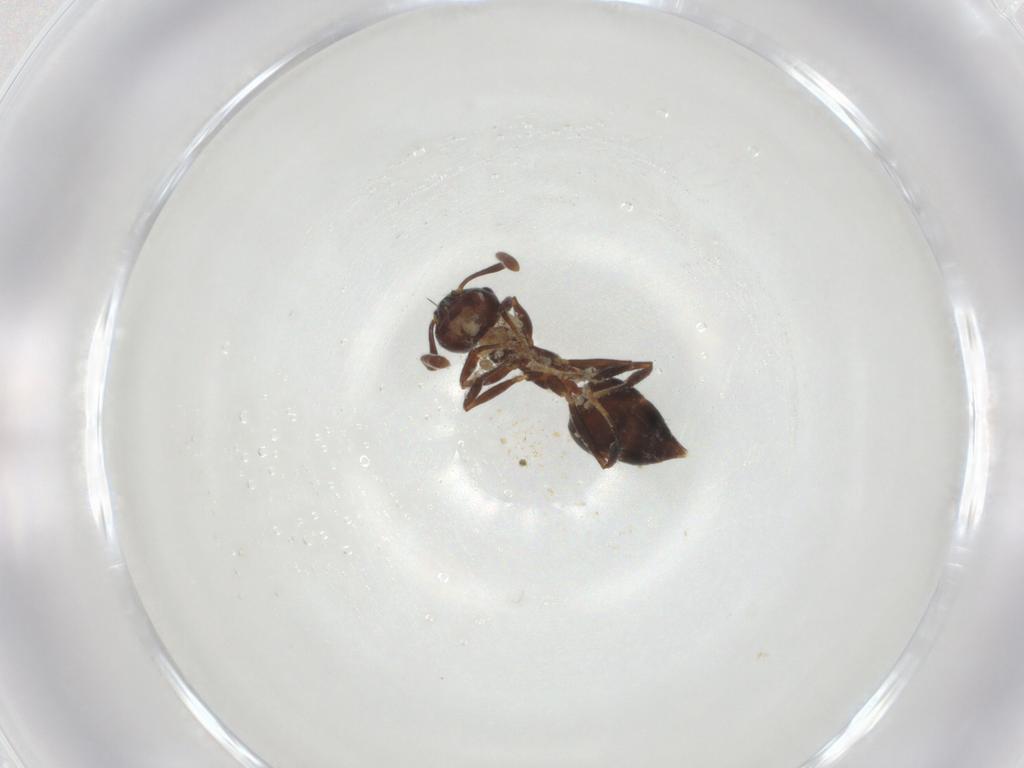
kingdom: Animalia
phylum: Arthropoda
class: Insecta
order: Hymenoptera
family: Formicidae
